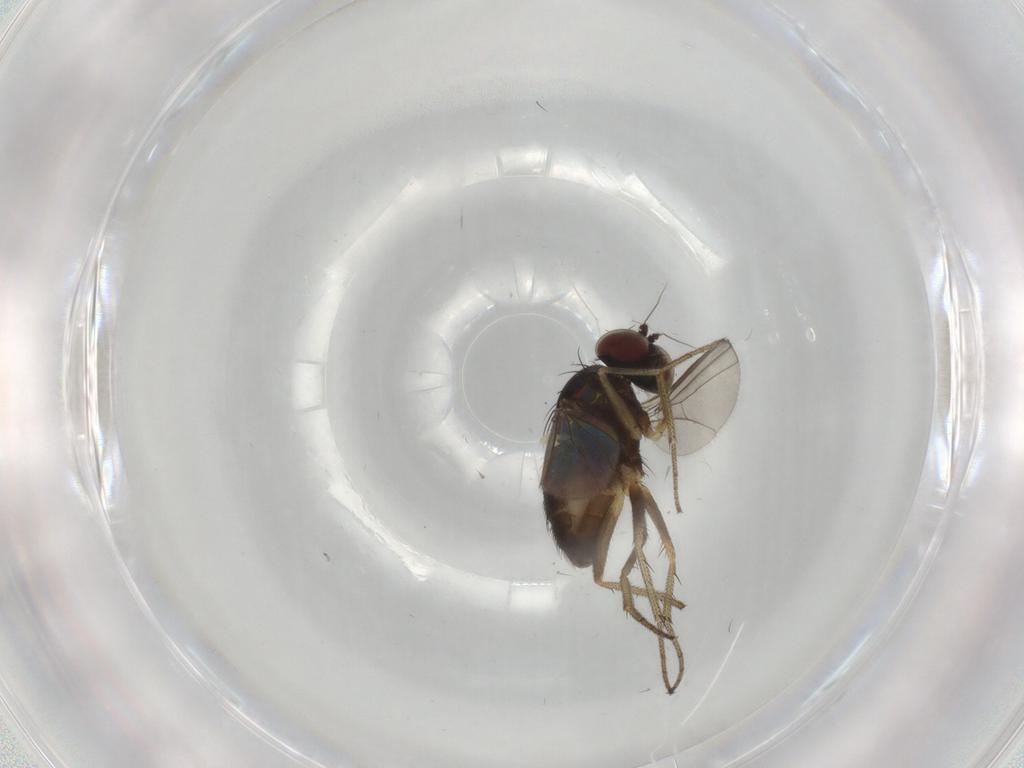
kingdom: Animalia
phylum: Arthropoda
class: Insecta
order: Diptera
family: Cecidomyiidae
